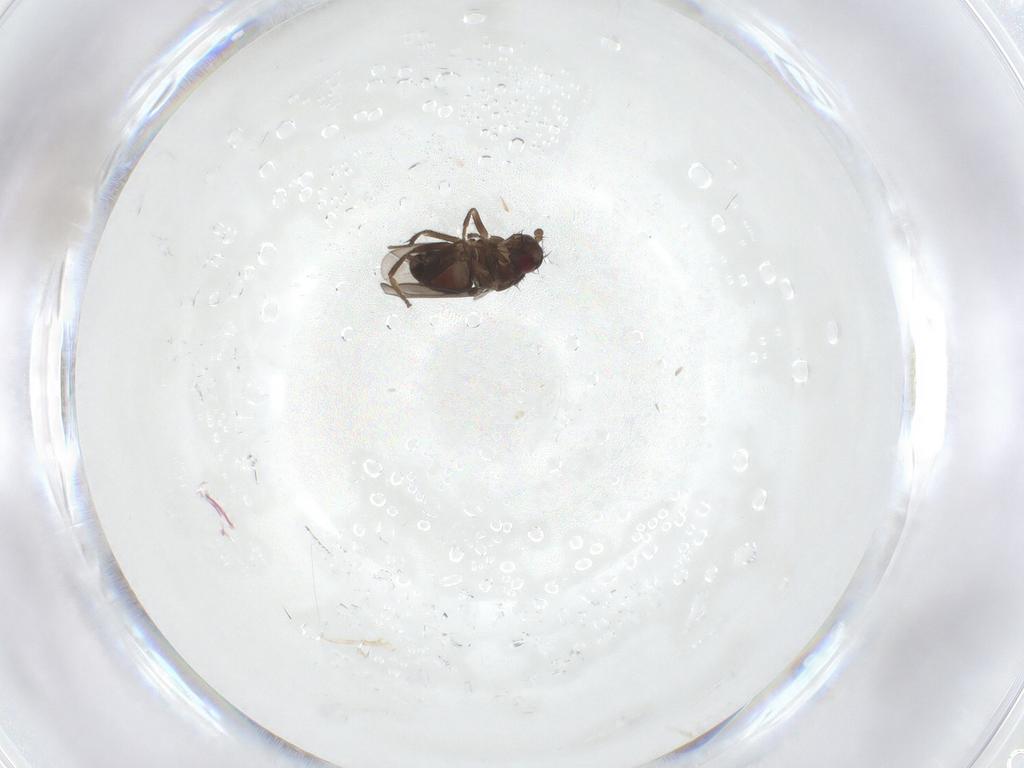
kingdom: Animalia
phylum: Arthropoda
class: Insecta
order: Diptera
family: Ditomyiidae
